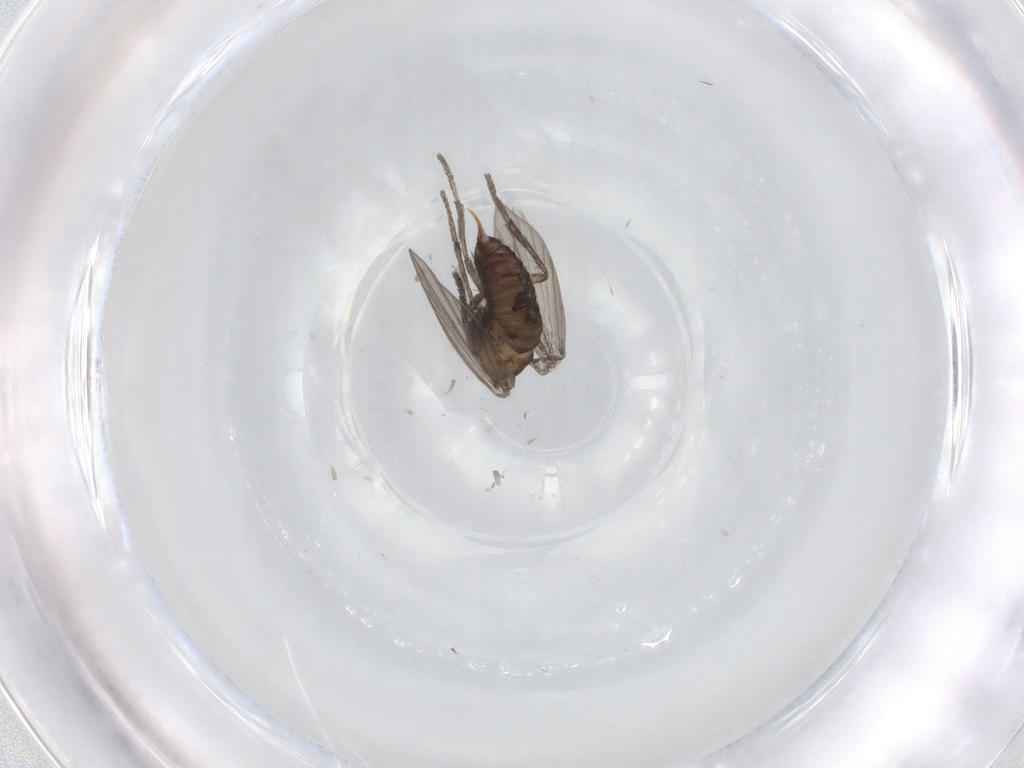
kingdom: Animalia
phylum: Arthropoda
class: Insecta
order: Diptera
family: Psychodidae
